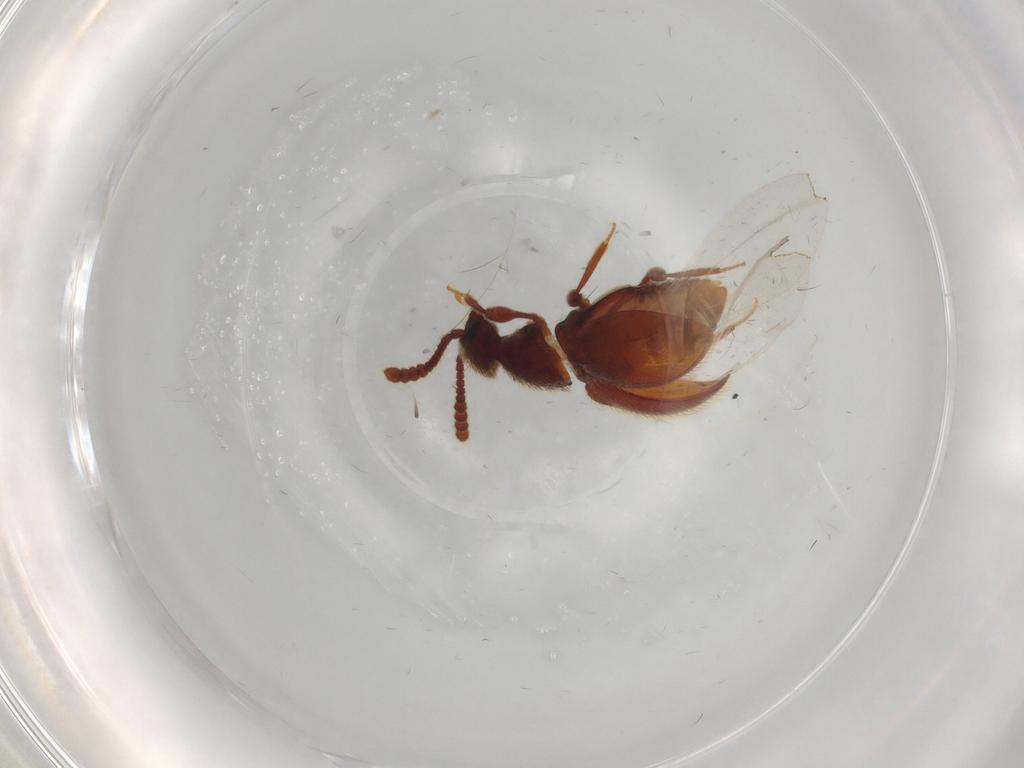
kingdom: Animalia
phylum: Arthropoda
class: Insecta
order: Coleoptera
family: Staphylinidae
